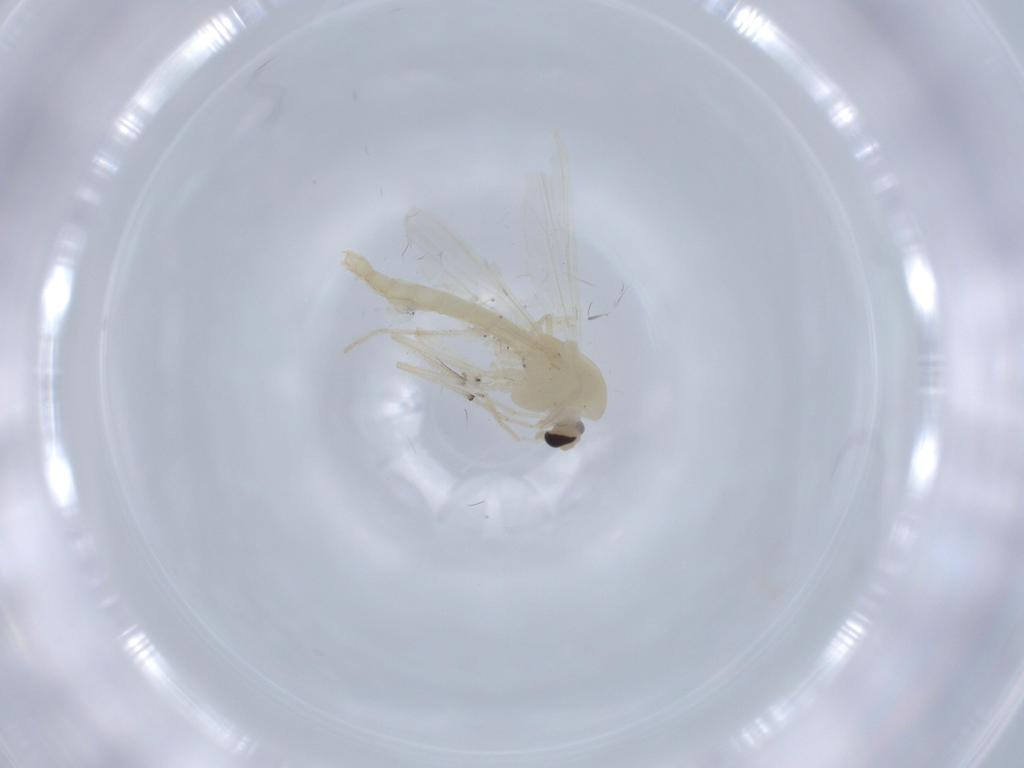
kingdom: Animalia
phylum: Arthropoda
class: Insecta
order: Diptera
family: Chironomidae
